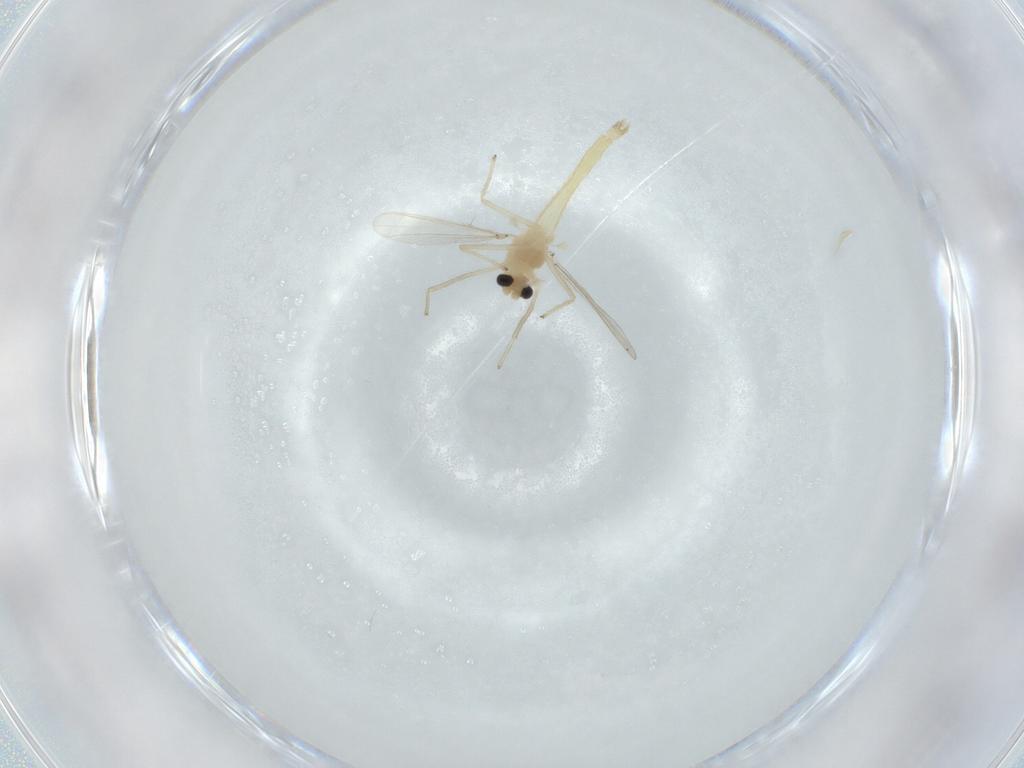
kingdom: Animalia
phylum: Arthropoda
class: Insecta
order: Diptera
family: Chironomidae
